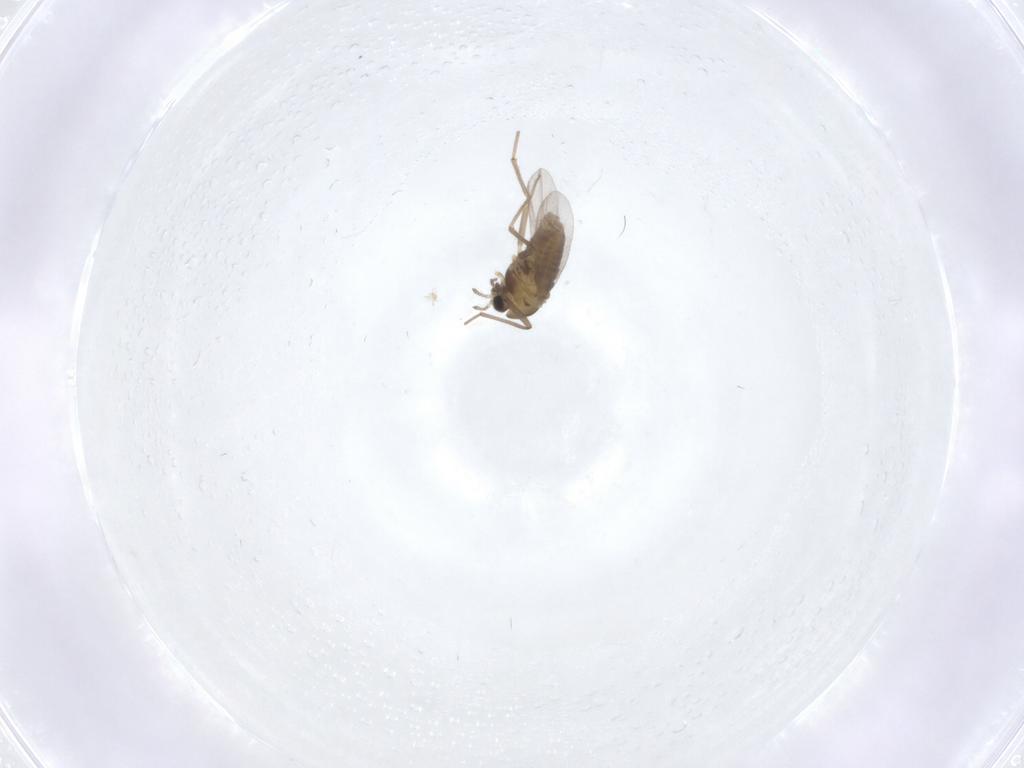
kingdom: Animalia
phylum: Arthropoda
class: Insecta
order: Diptera
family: Chironomidae
